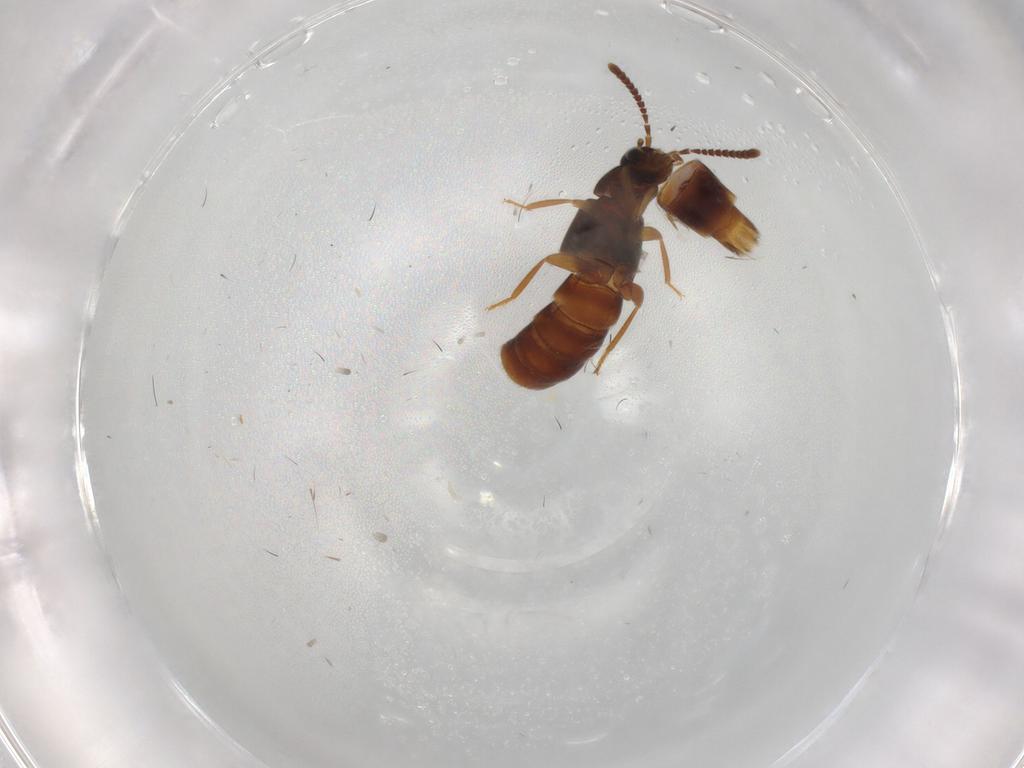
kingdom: Animalia
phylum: Arthropoda
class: Insecta
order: Coleoptera
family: Staphylinidae
